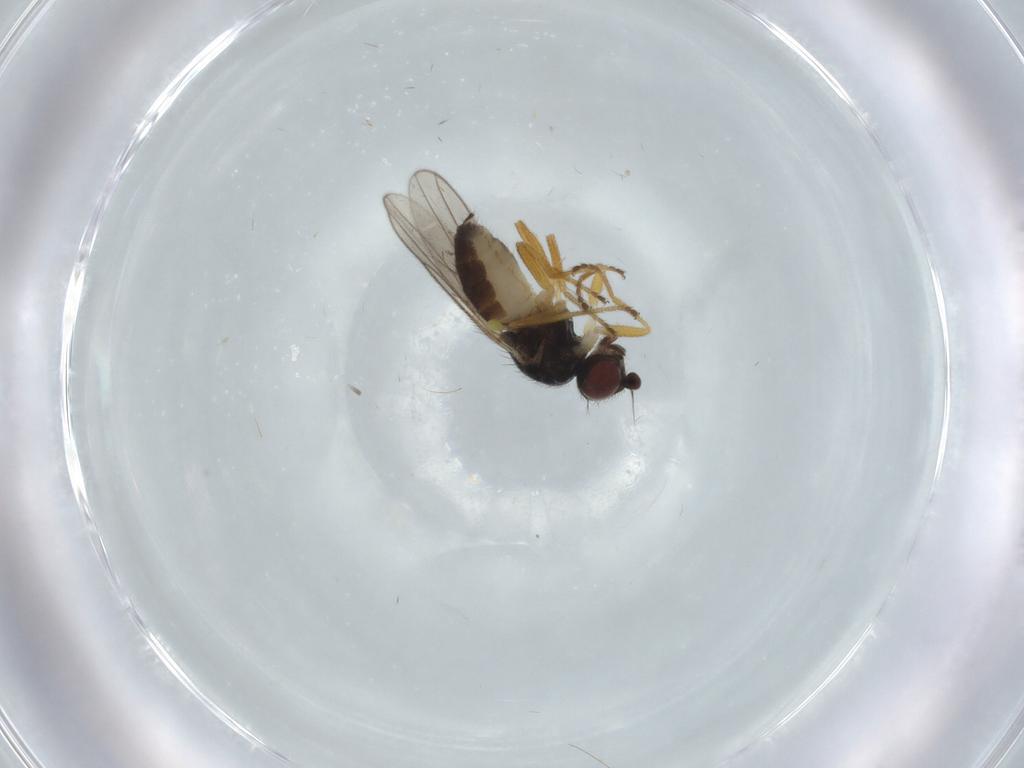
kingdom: Animalia
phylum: Arthropoda
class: Insecta
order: Diptera
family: Chloropidae
